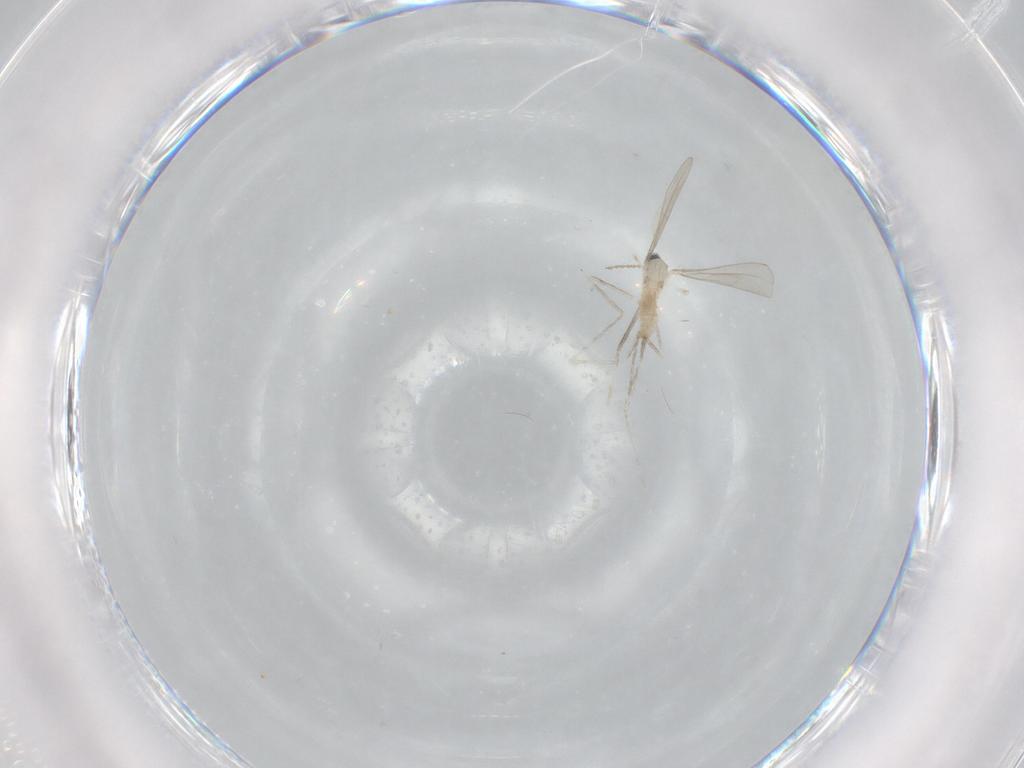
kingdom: Animalia
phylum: Arthropoda
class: Insecta
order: Diptera
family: Cecidomyiidae
